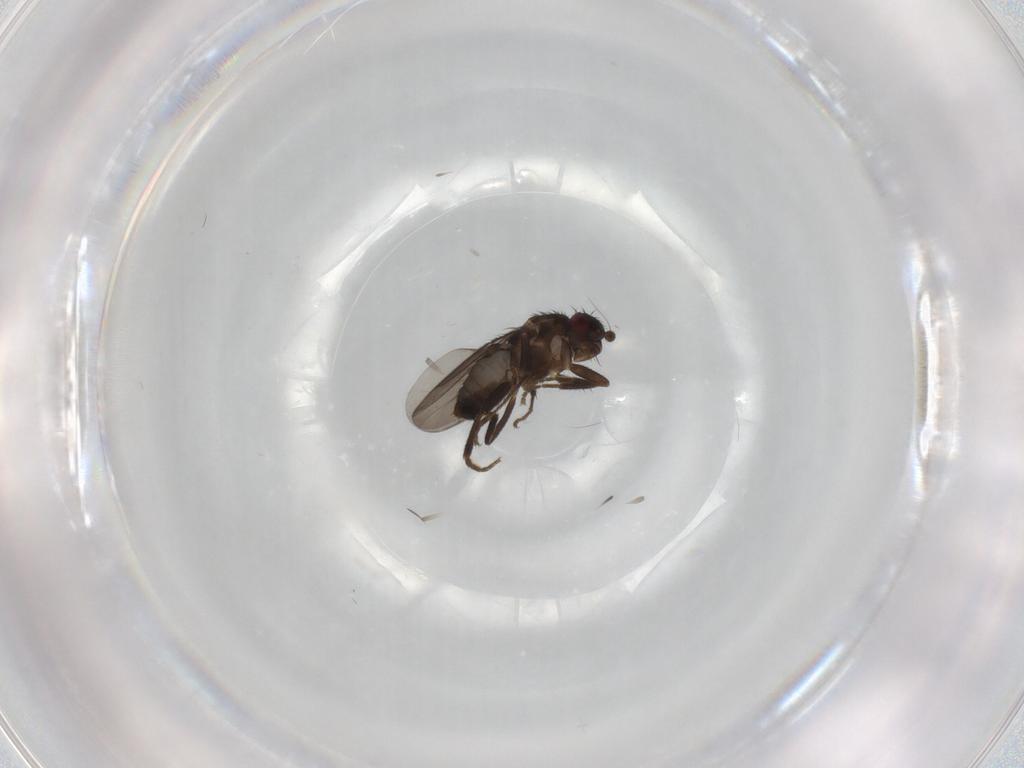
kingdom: Animalia
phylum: Arthropoda
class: Insecta
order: Diptera
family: Sphaeroceridae
